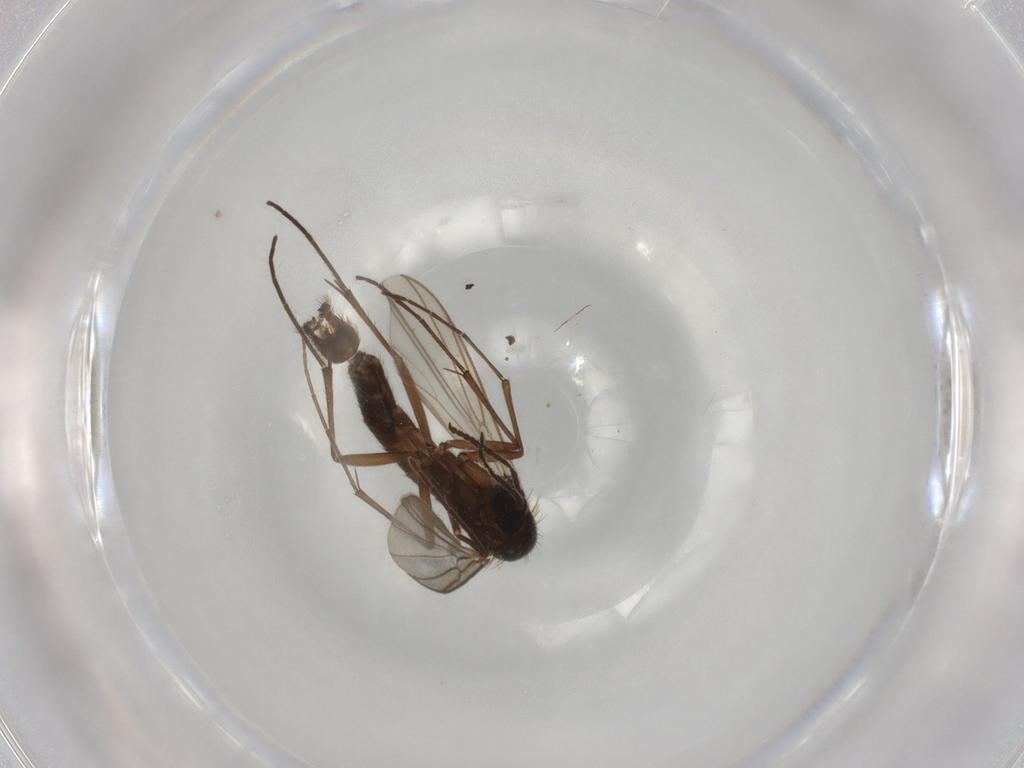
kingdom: Animalia
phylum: Arthropoda
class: Insecta
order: Diptera
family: Mycetophilidae
